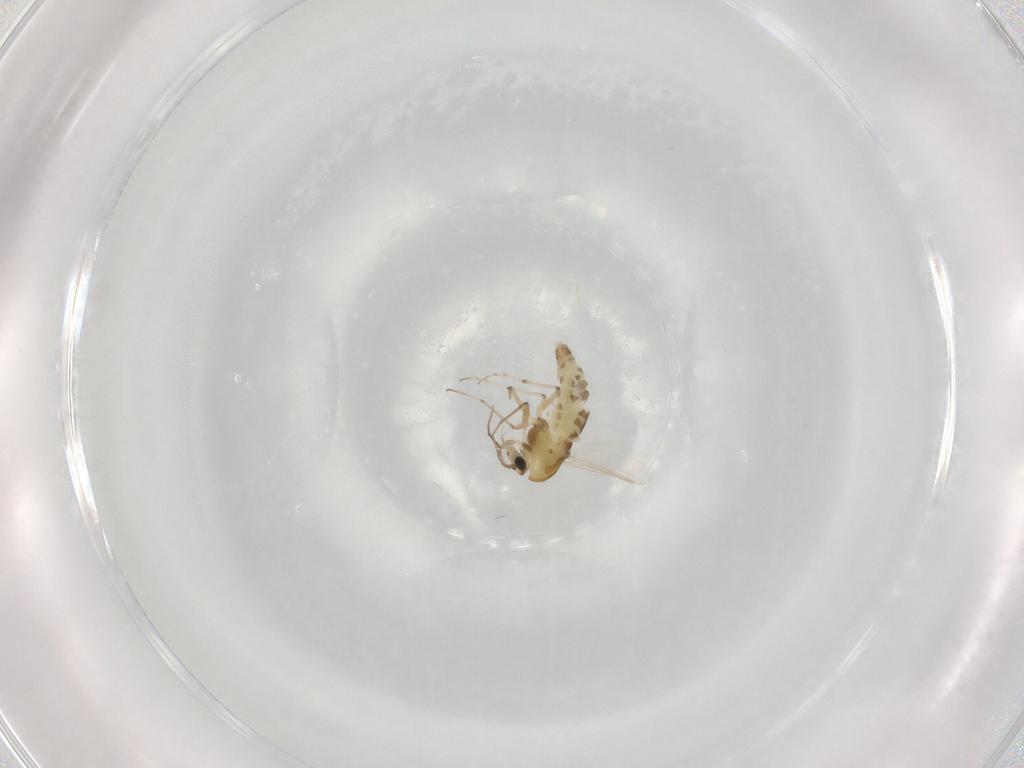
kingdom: Animalia
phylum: Arthropoda
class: Insecta
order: Diptera
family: Chironomidae
